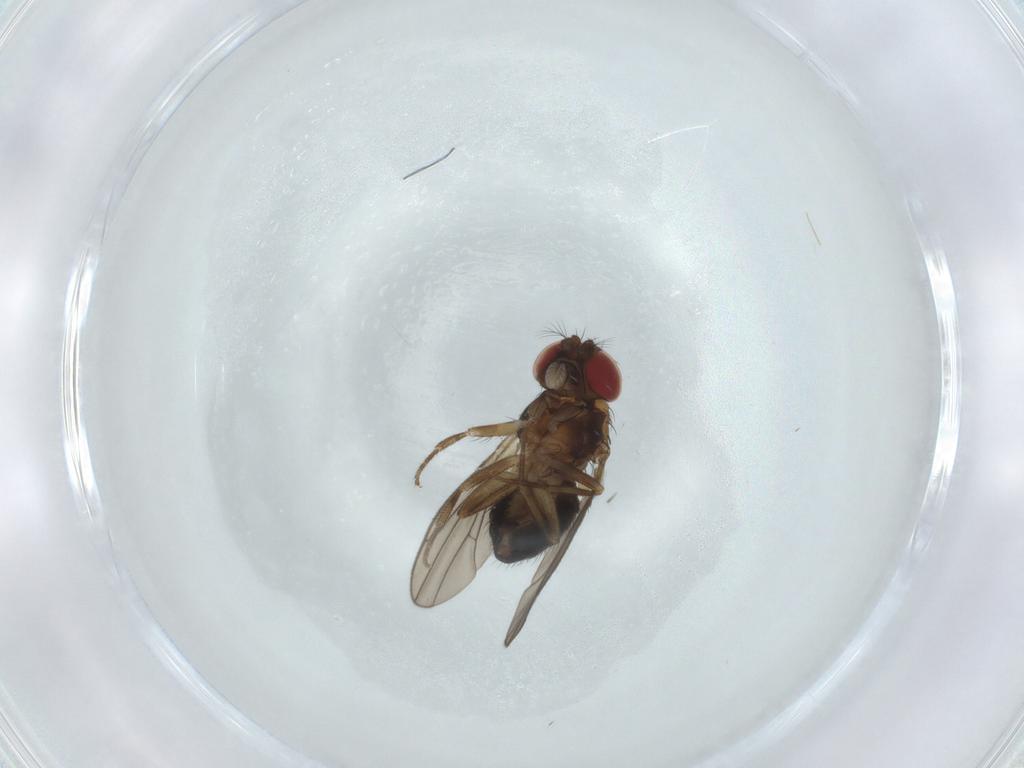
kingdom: Animalia
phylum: Arthropoda
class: Insecta
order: Diptera
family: Drosophilidae
